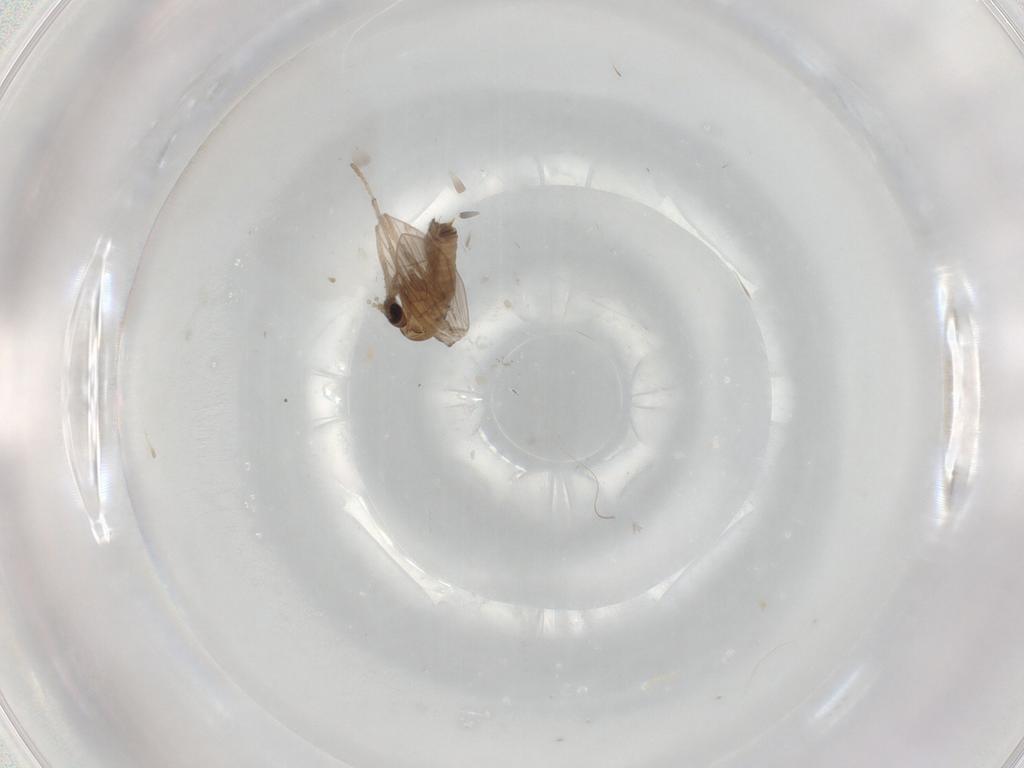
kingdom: Animalia
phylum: Arthropoda
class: Insecta
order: Diptera
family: Psychodidae
